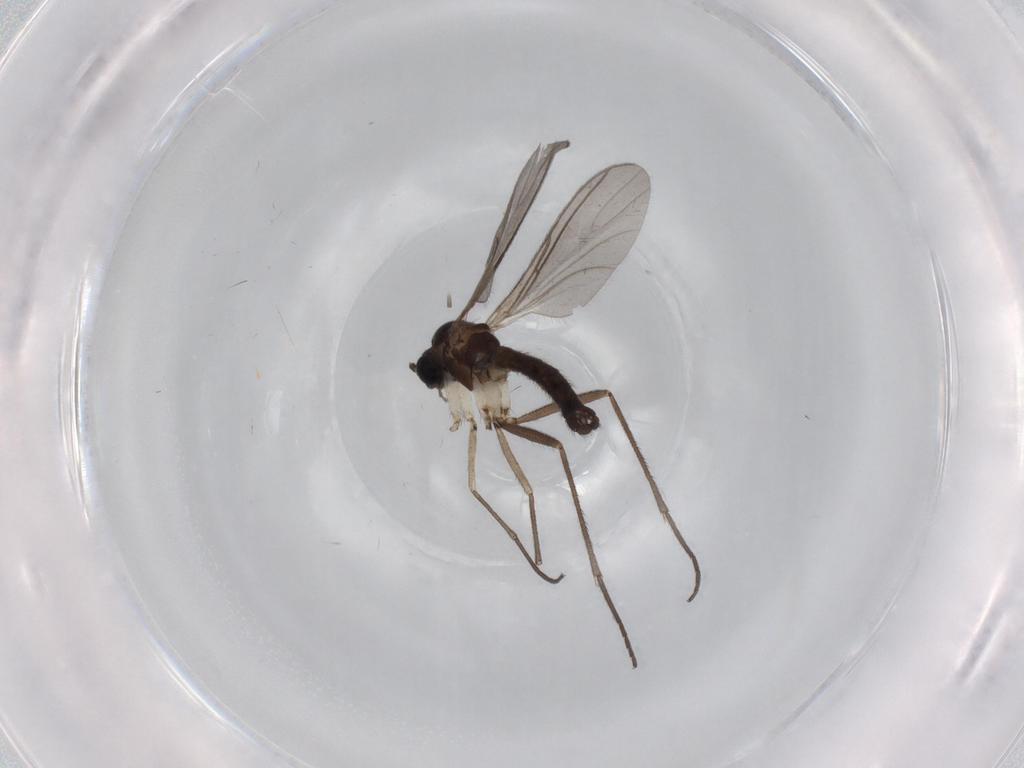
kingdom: Animalia
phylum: Arthropoda
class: Insecta
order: Diptera
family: Sciaridae
